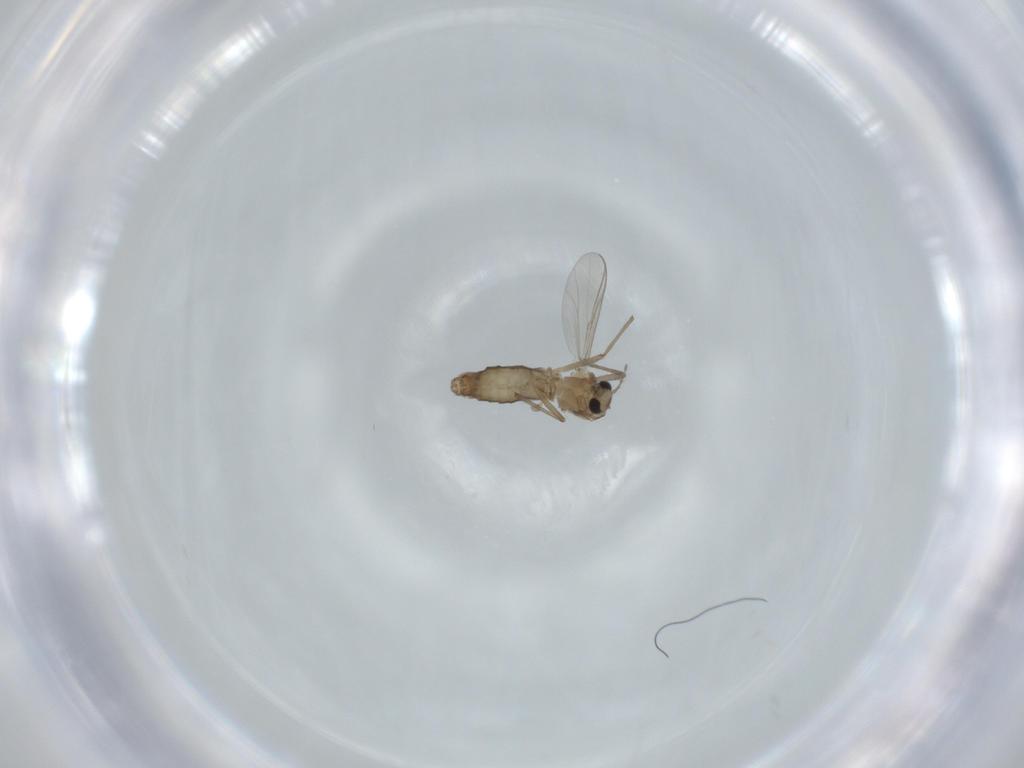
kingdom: Animalia
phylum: Arthropoda
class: Insecta
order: Diptera
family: Chironomidae
